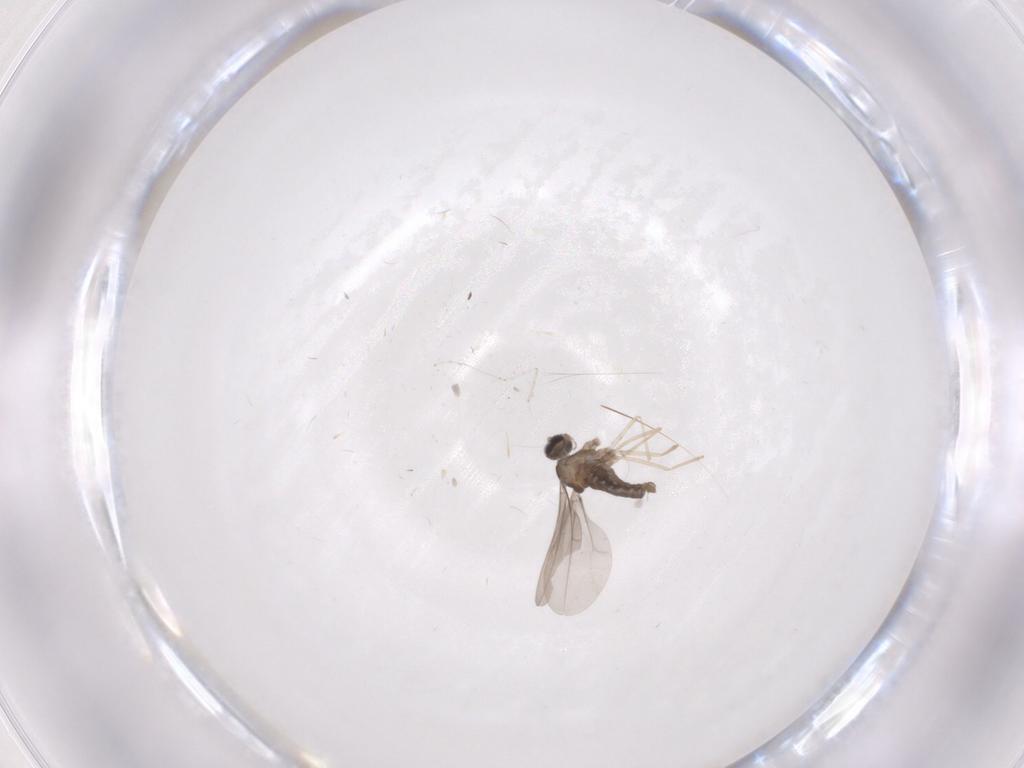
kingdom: Animalia
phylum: Arthropoda
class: Insecta
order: Diptera
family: Cecidomyiidae
